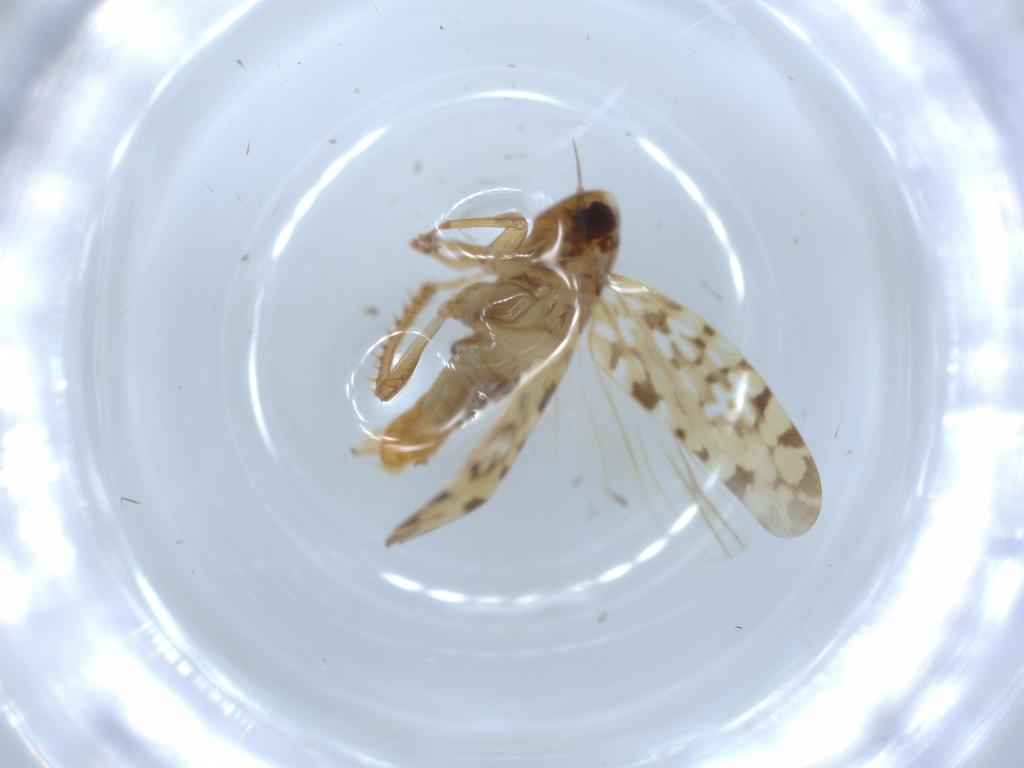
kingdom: Animalia
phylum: Arthropoda
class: Insecta
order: Hemiptera
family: Cicadellidae
